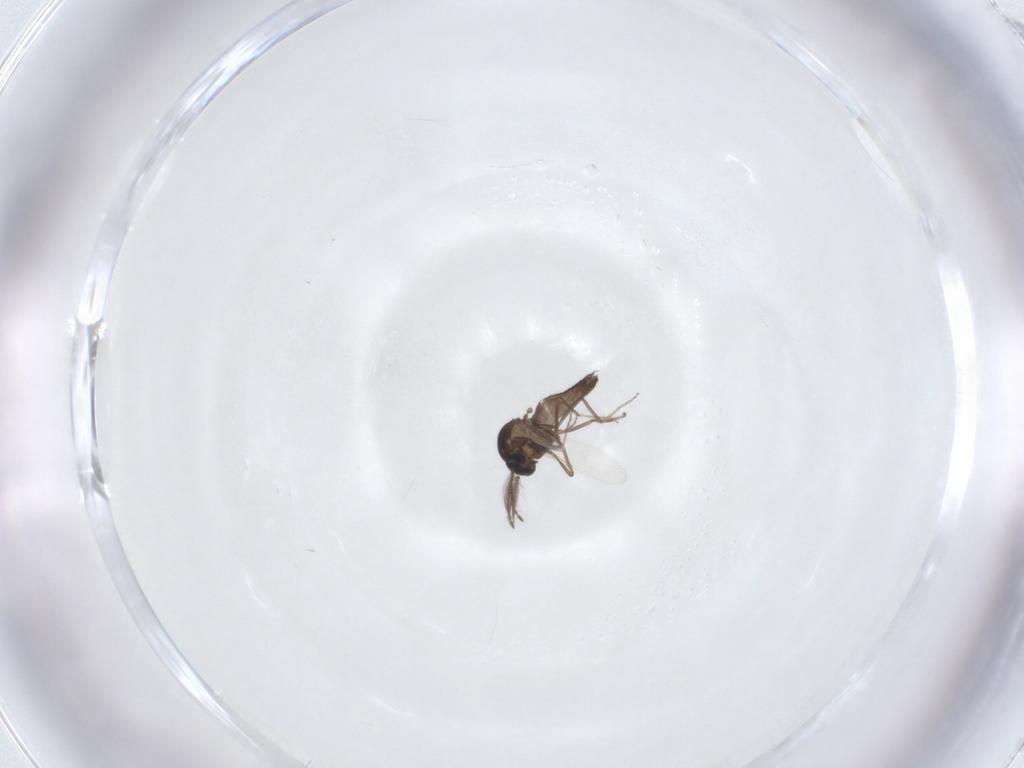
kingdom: Animalia
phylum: Arthropoda
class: Insecta
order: Diptera
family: Ceratopogonidae
